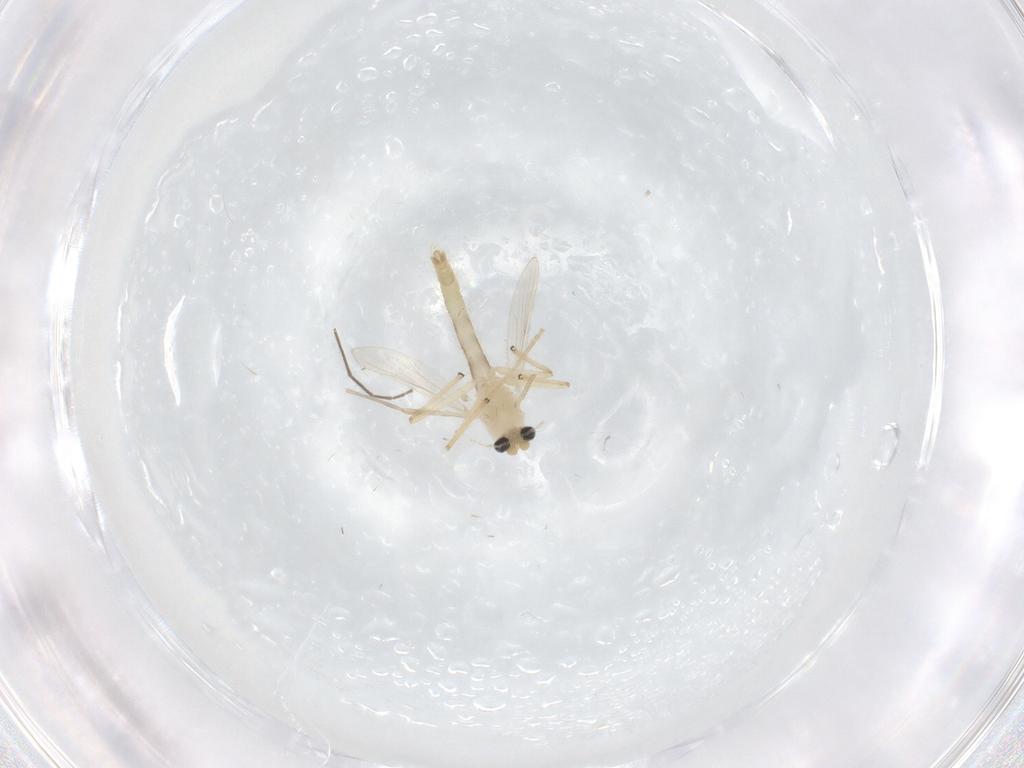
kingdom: Animalia
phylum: Arthropoda
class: Insecta
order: Diptera
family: Chironomidae
